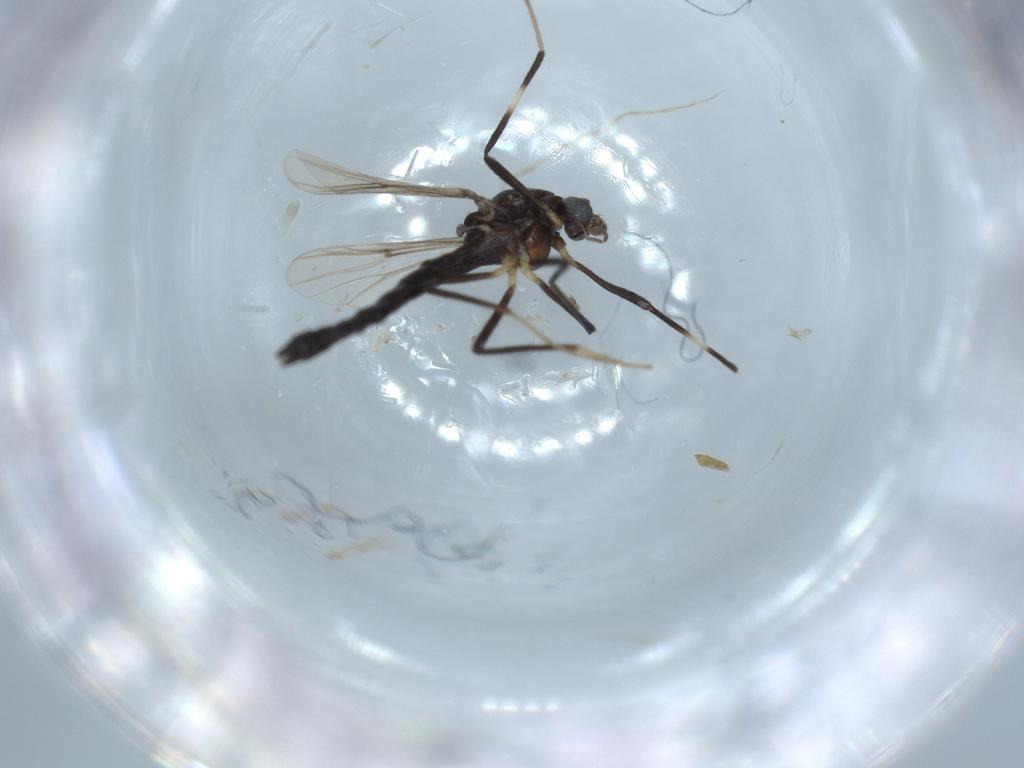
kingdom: Animalia
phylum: Arthropoda
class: Insecta
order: Diptera
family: Chironomidae
